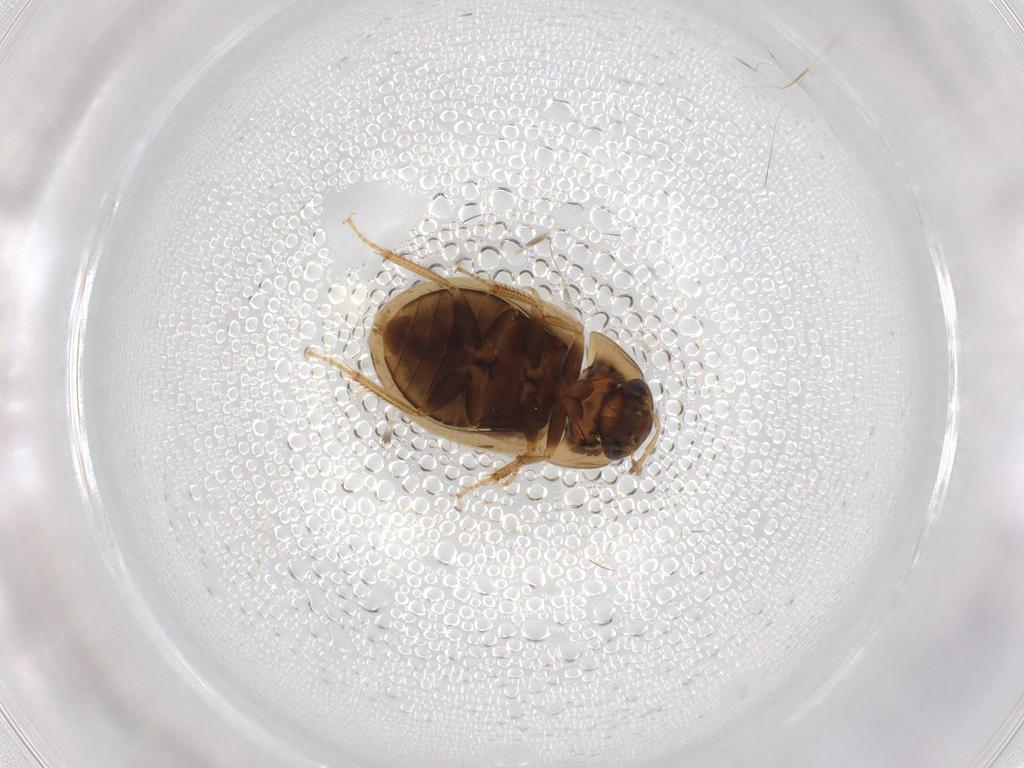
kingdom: Animalia
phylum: Arthropoda
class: Insecta
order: Coleoptera
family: Hydrophilidae
